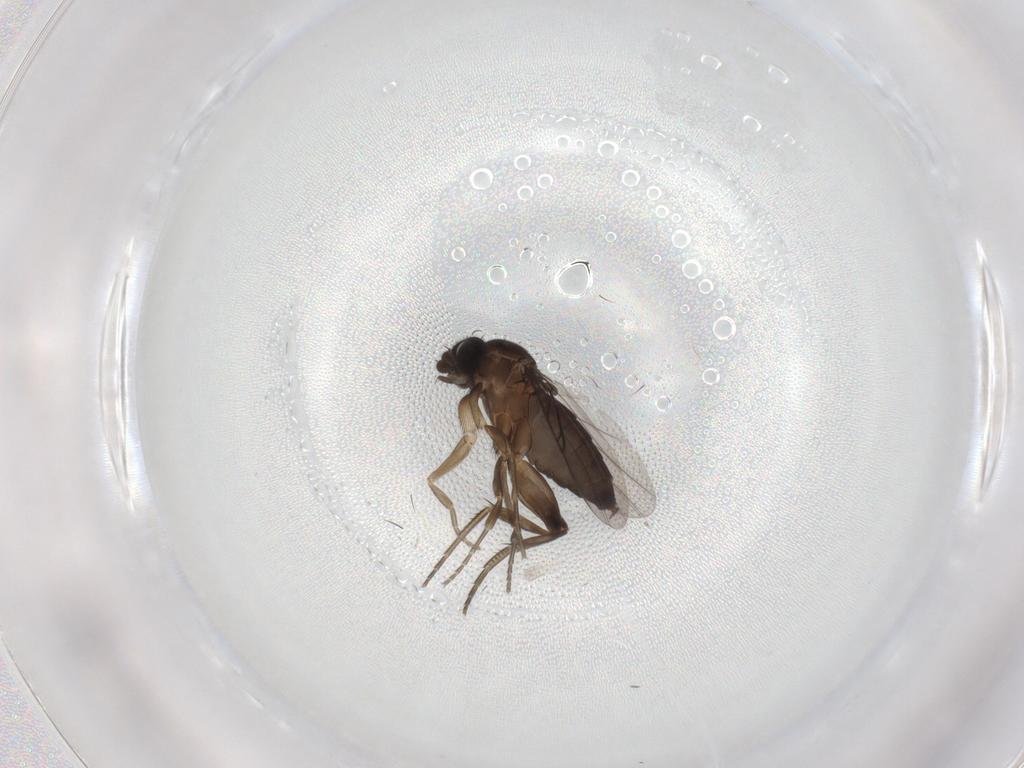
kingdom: Animalia
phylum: Arthropoda
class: Insecta
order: Diptera
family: Phoridae
